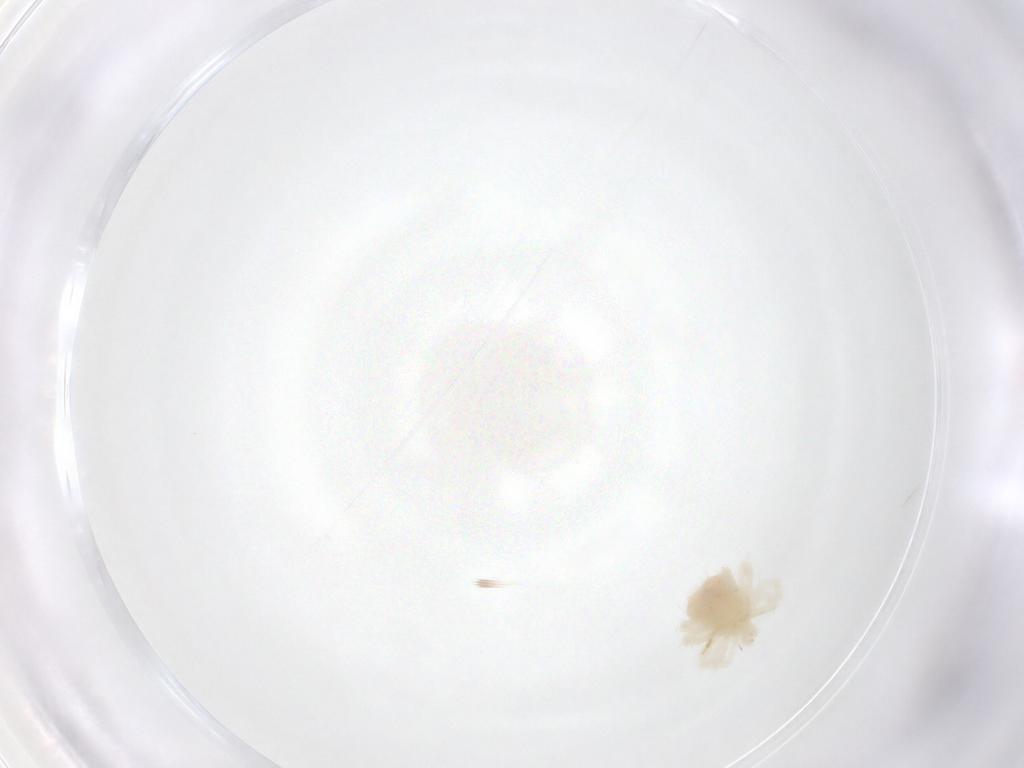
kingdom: Animalia
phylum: Arthropoda
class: Arachnida
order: Trombidiformes
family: Anystidae
